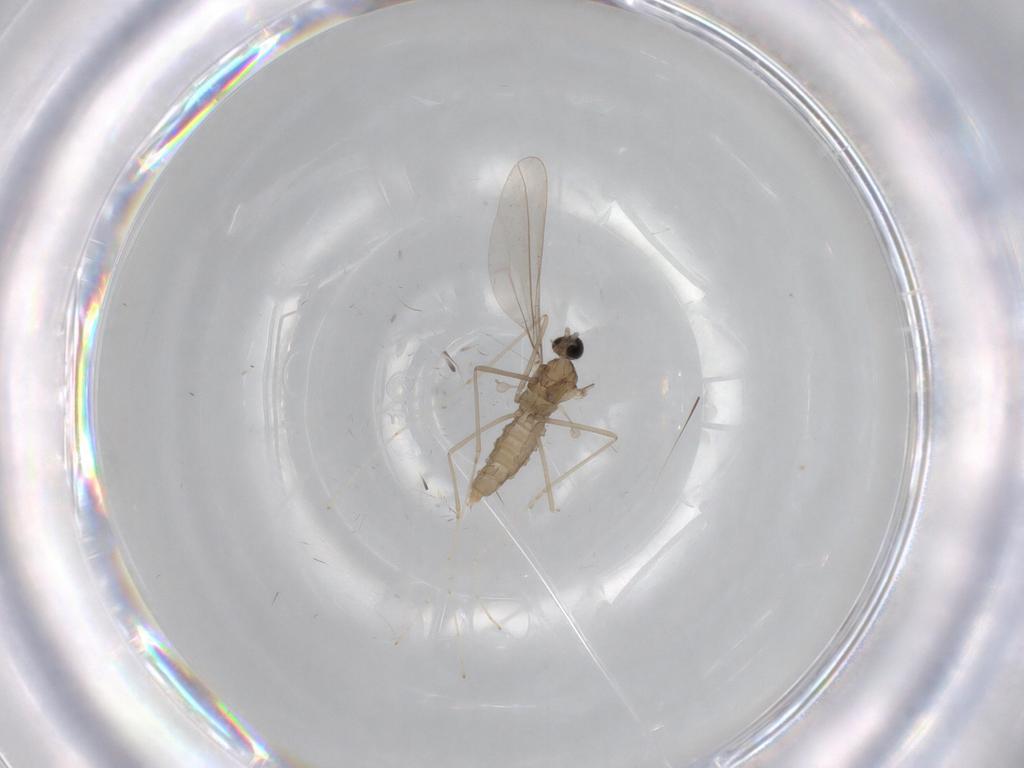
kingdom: Animalia
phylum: Arthropoda
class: Insecta
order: Diptera
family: Cecidomyiidae
